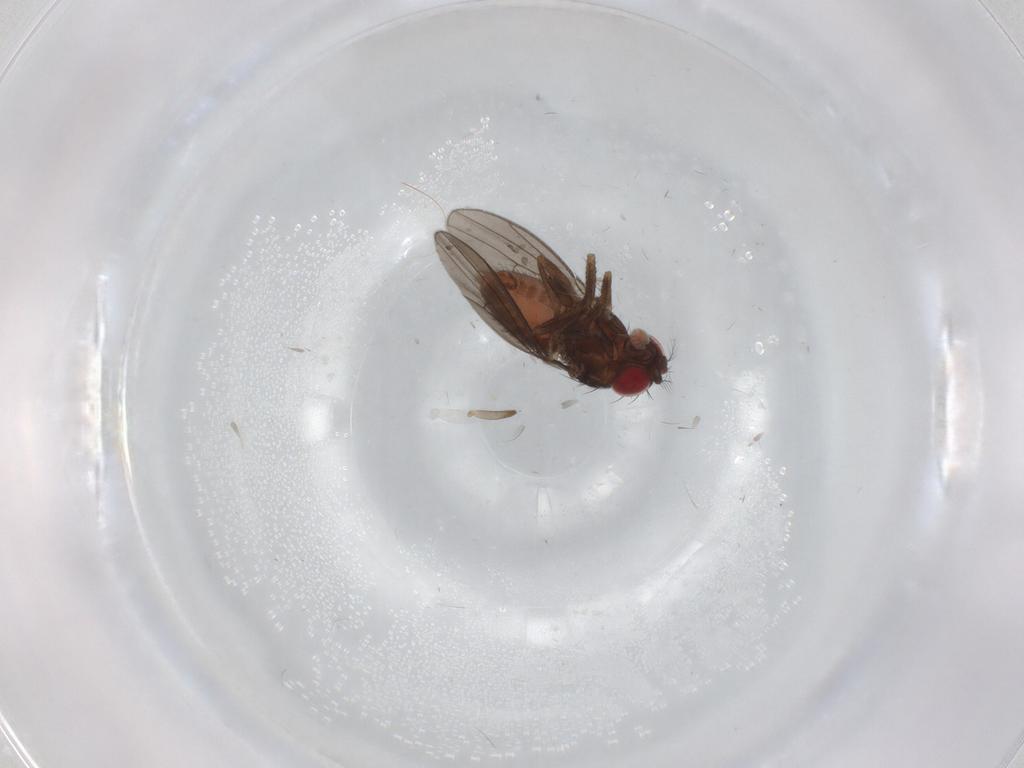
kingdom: Animalia
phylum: Arthropoda
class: Insecta
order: Diptera
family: Drosophilidae
